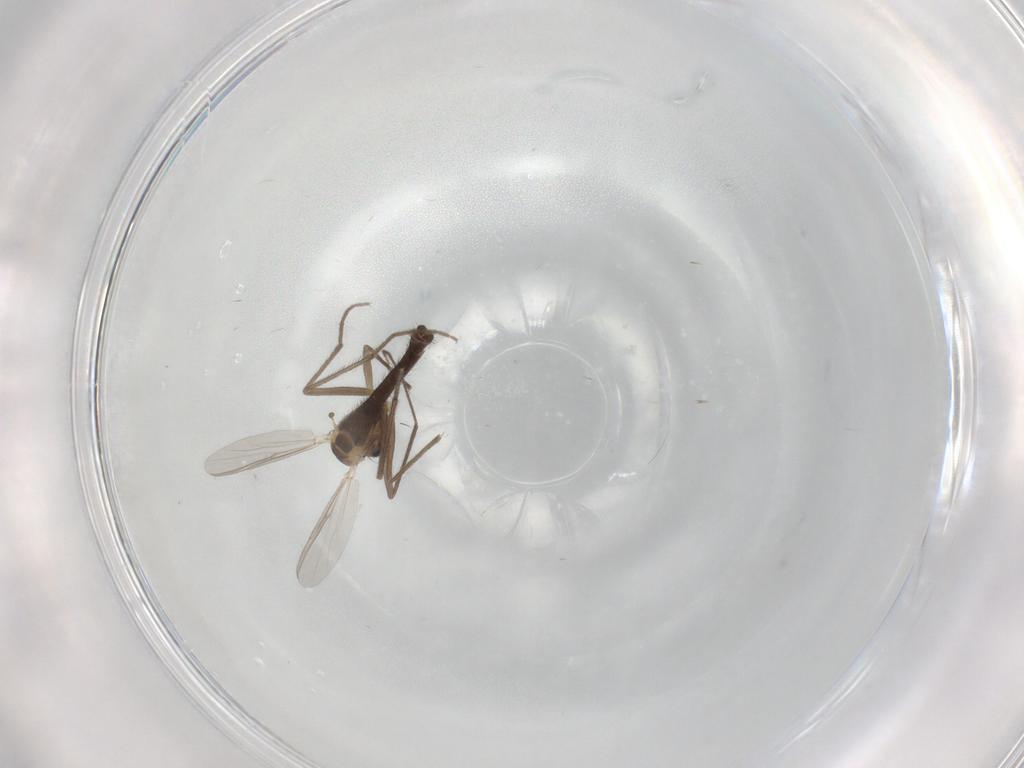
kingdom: Animalia
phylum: Arthropoda
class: Insecta
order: Diptera
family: Chironomidae
